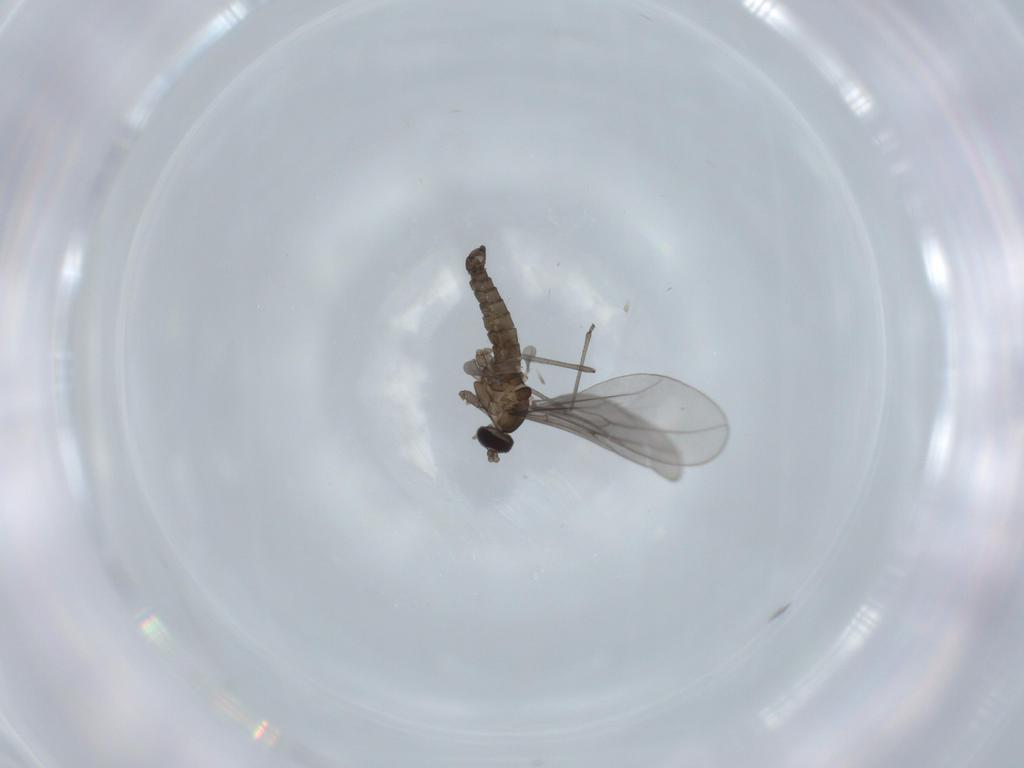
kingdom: Animalia
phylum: Arthropoda
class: Insecta
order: Diptera
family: Cecidomyiidae
